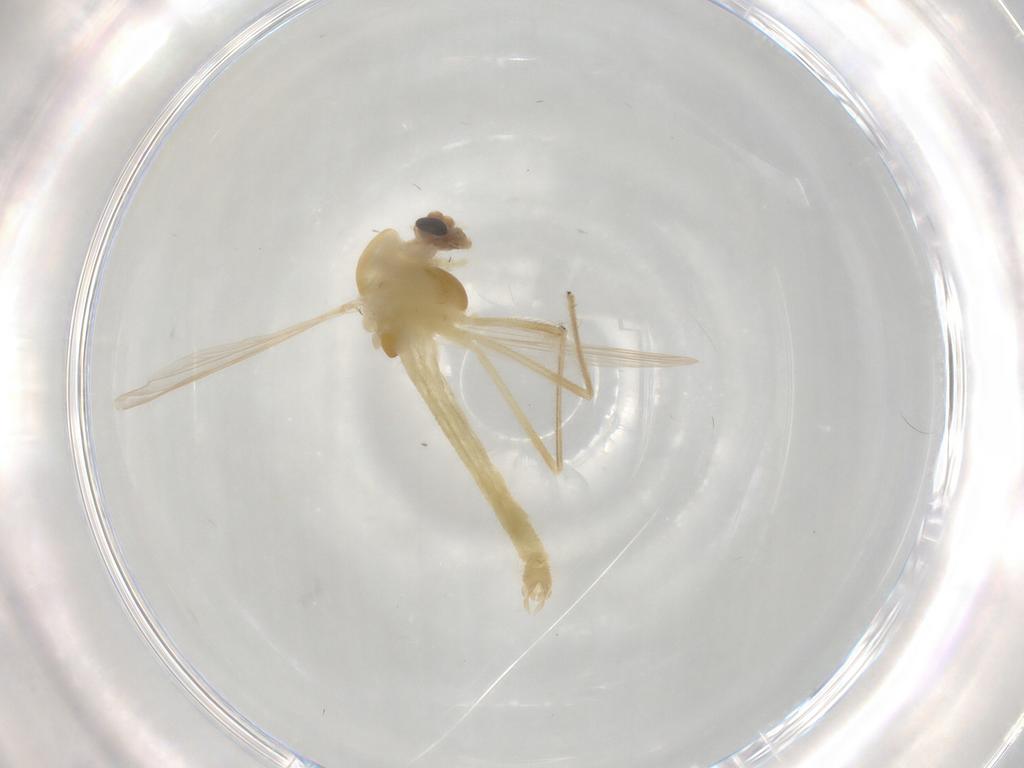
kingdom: Animalia
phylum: Arthropoda
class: Insecta
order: Diptera
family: Chironomidae
